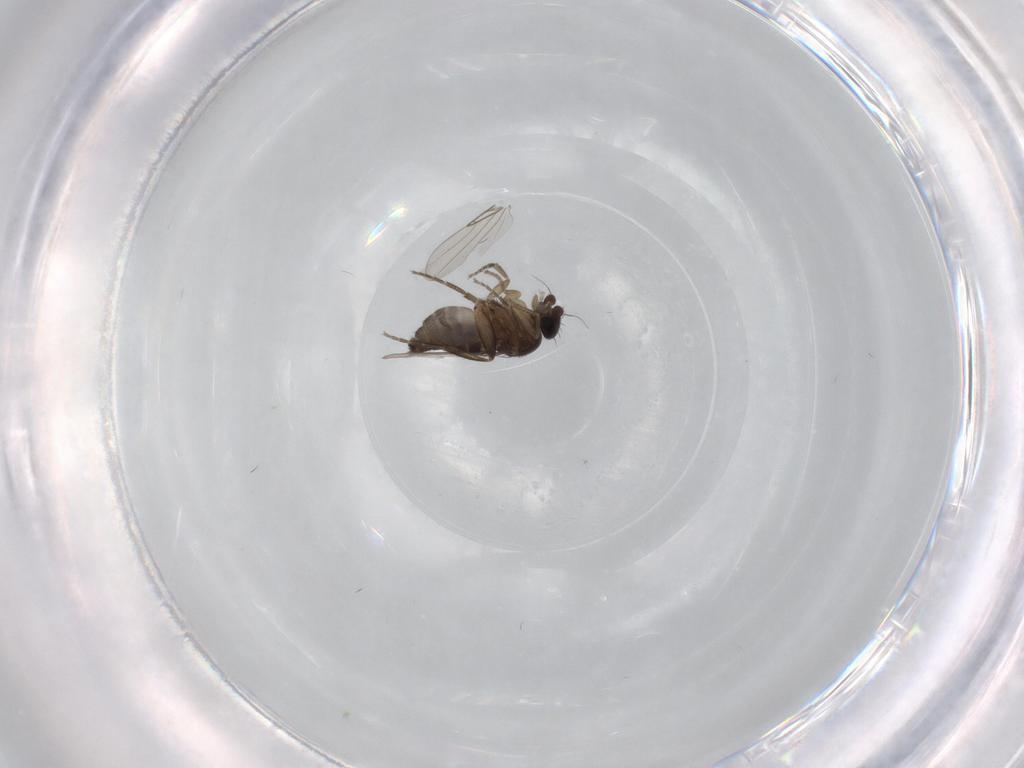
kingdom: Animalia
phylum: Arthropoda
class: Insecta
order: Diptera
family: Phoridae
